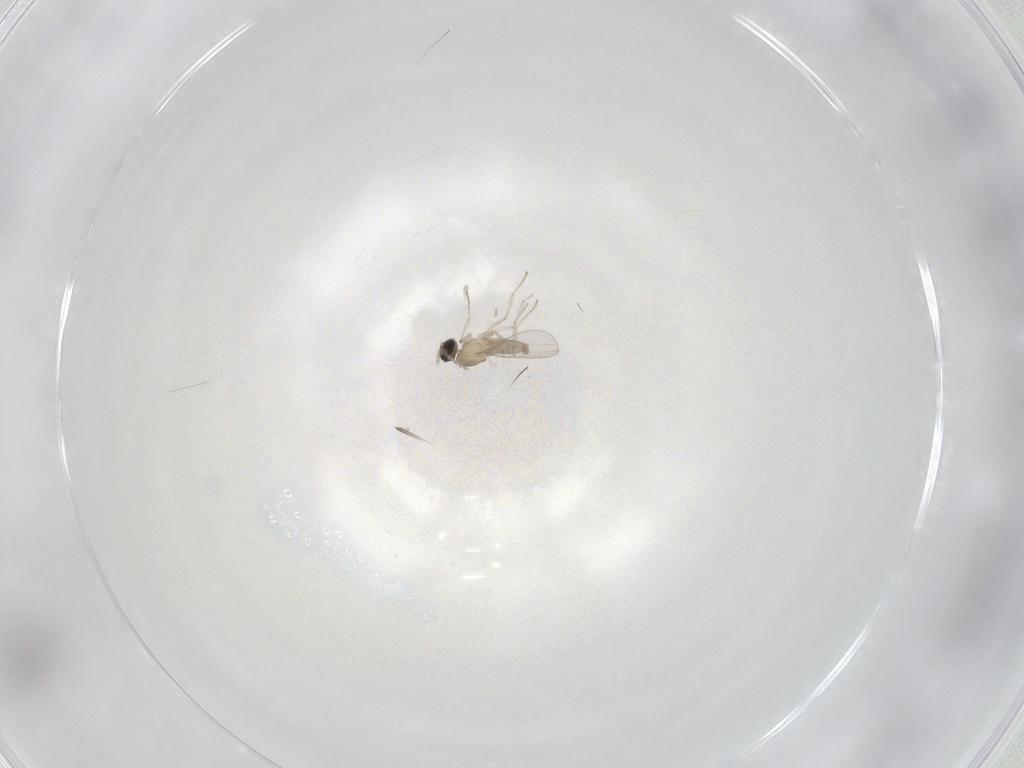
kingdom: Animalia
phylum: Arthropoda
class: Insecta
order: Diptera
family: Cecidomyiidae
